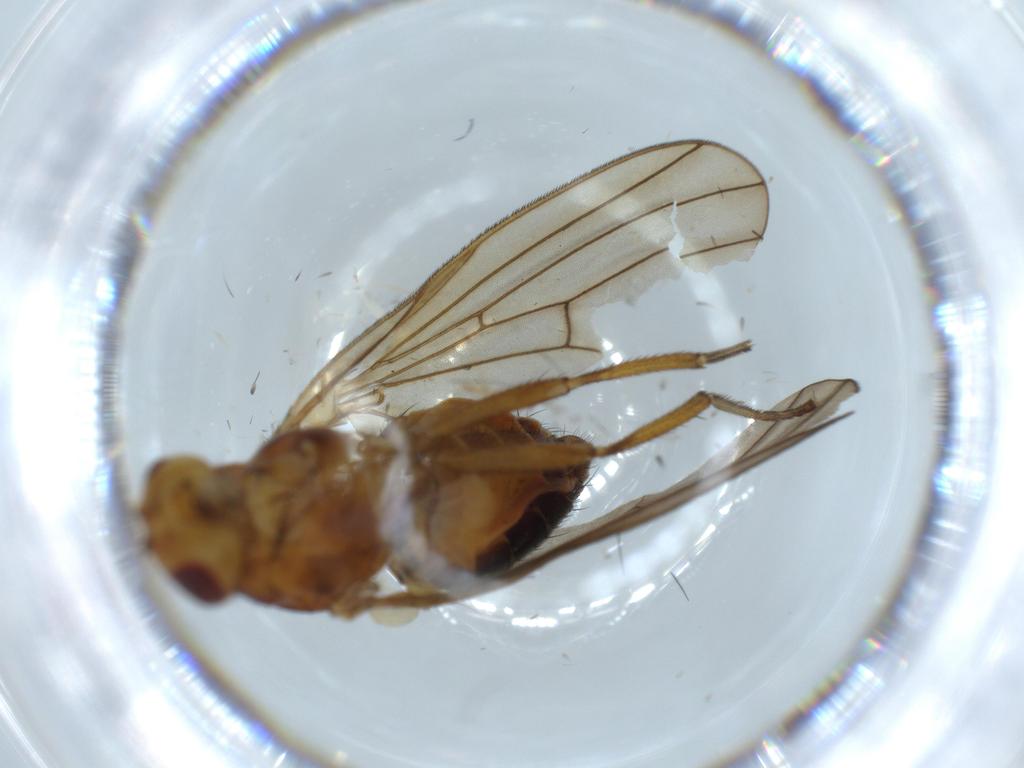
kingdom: Animalia
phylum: Arthropoda
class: Insecta
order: Diptera
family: Lauxaniidae
